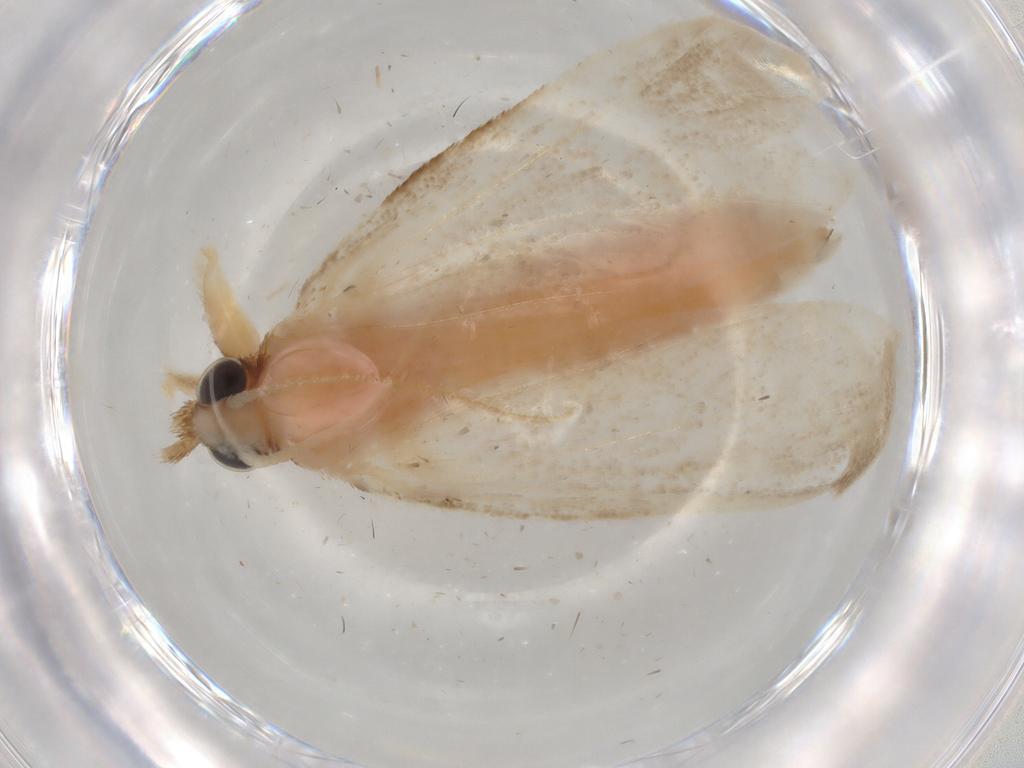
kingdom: Animalia
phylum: Arthropoda
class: Insecta
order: Lepidoptera
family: Crambidae
